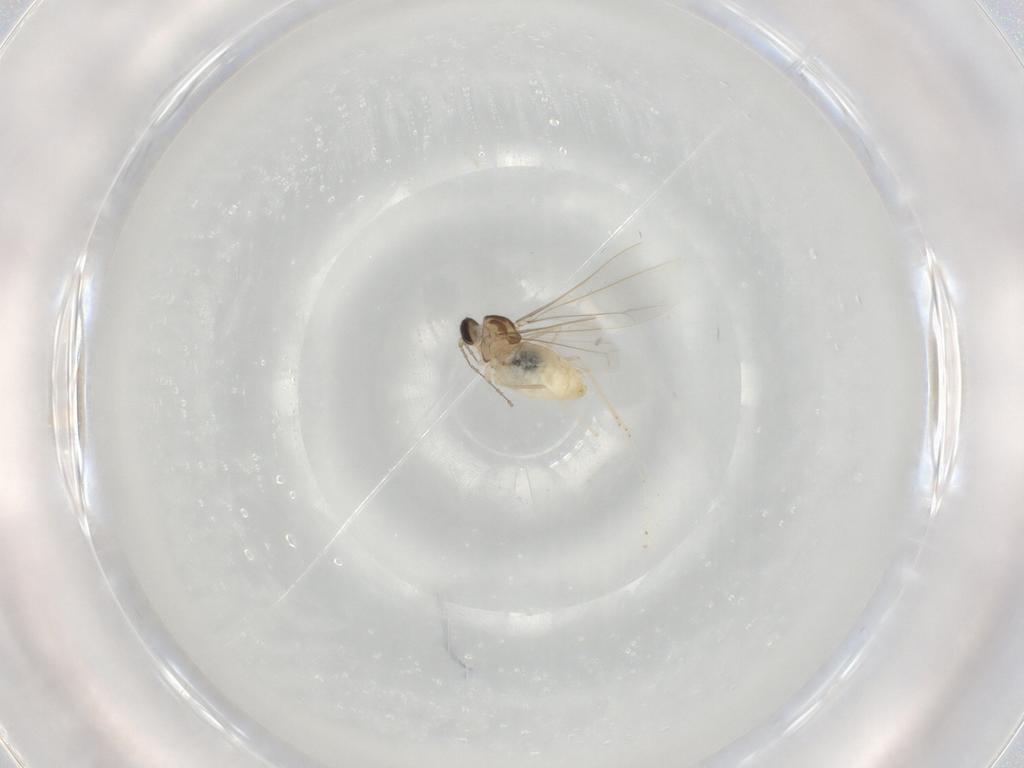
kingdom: Animalia
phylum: Arthropoda
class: Insecta
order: Diptera
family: Cecidomyiidae
